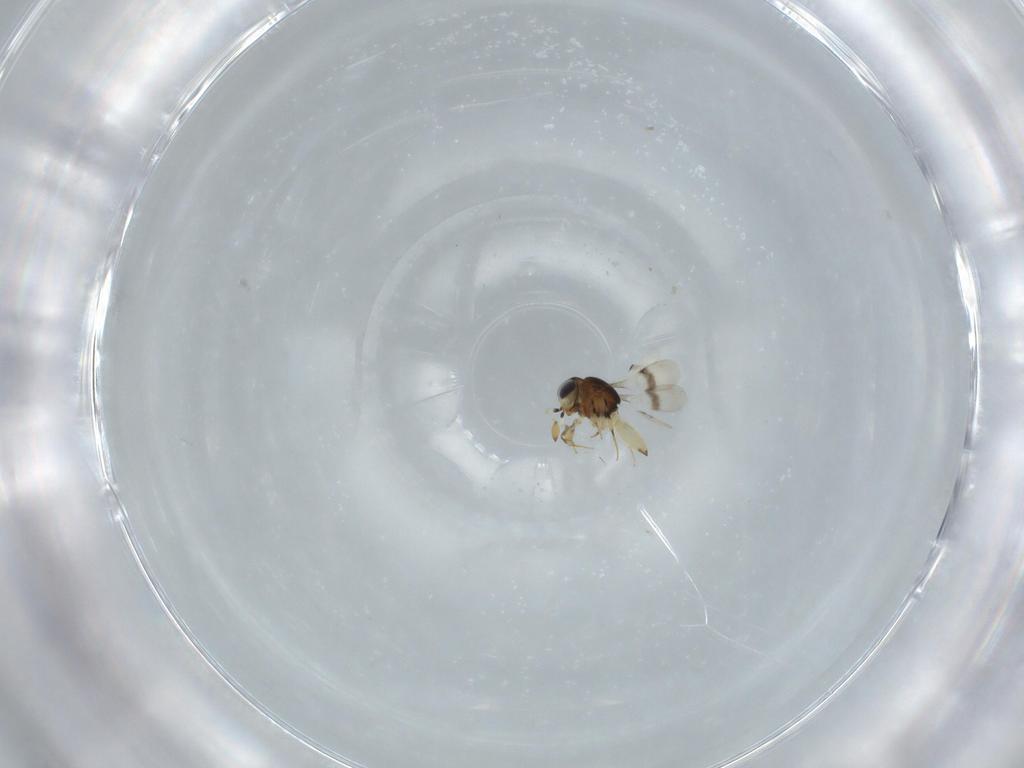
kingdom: Animalia
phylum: Arthropoda
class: Insecta
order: Hymenoptera
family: Scelionidae
